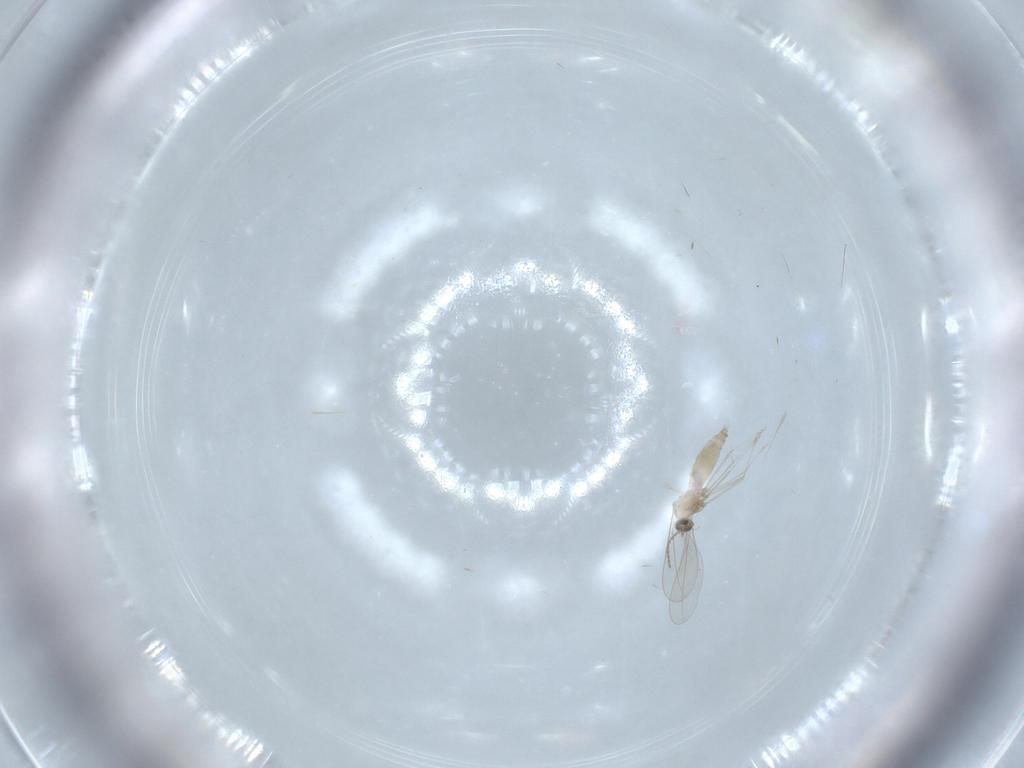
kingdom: Animalia
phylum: Arthropoda
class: Insecta
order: Diptera
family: Cecidomyiidae
